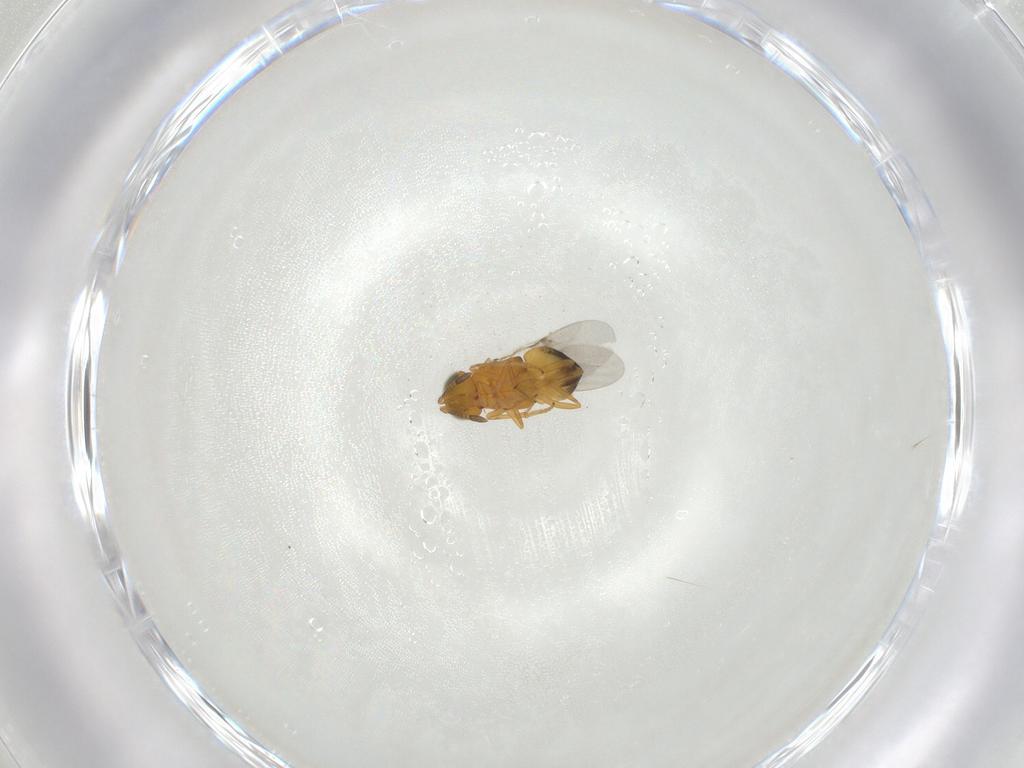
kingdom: Animalia
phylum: Arthropoda
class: Insecta
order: Hymenoptera
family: Encyrtidae
